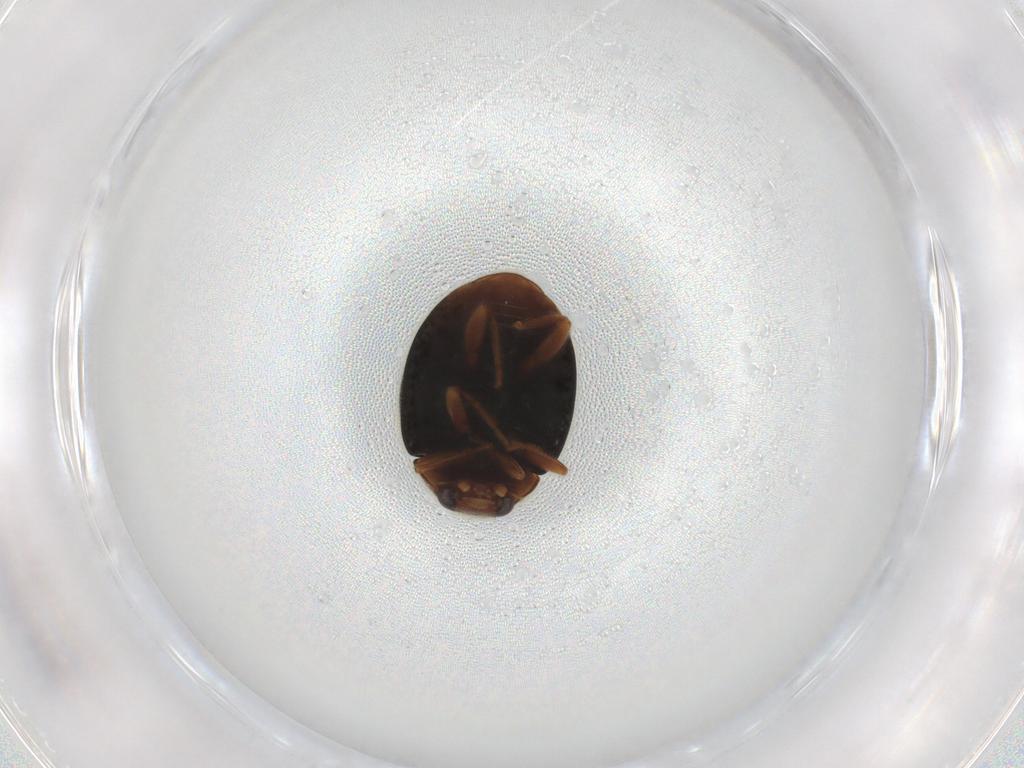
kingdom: Animalia
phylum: Arthropoda
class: Insecta
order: Coleoptera
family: Coccinellidae
